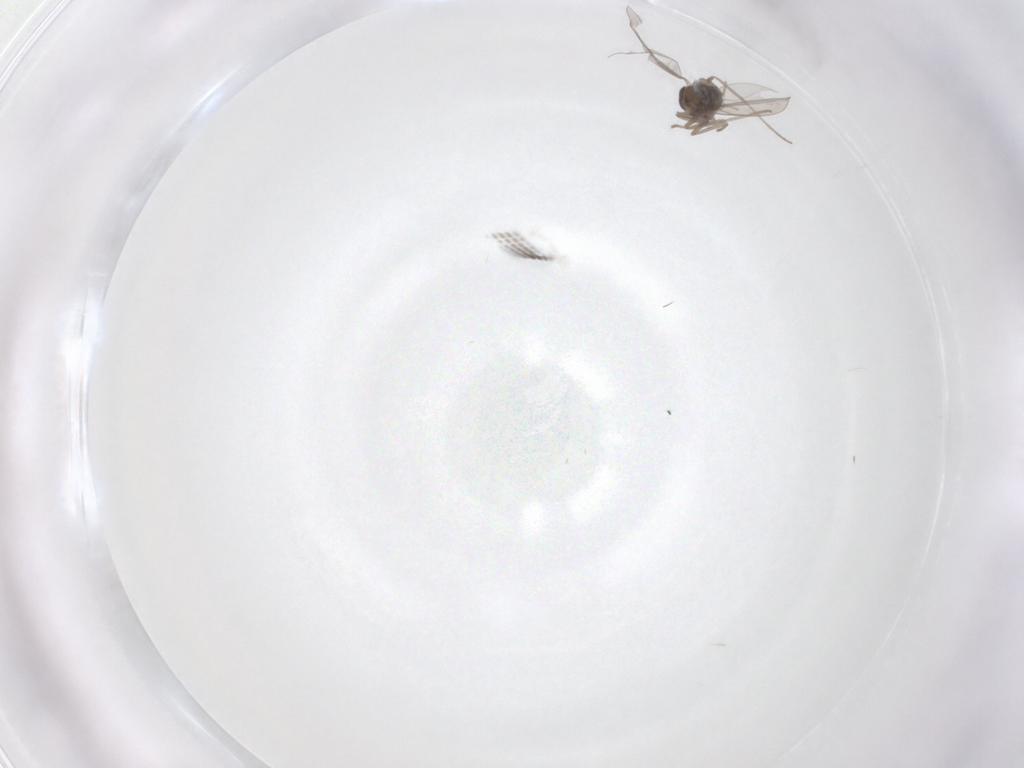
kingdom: Animalia
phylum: Arthropoda
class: Insecta
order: Diptera
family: Cecidomyiidae
